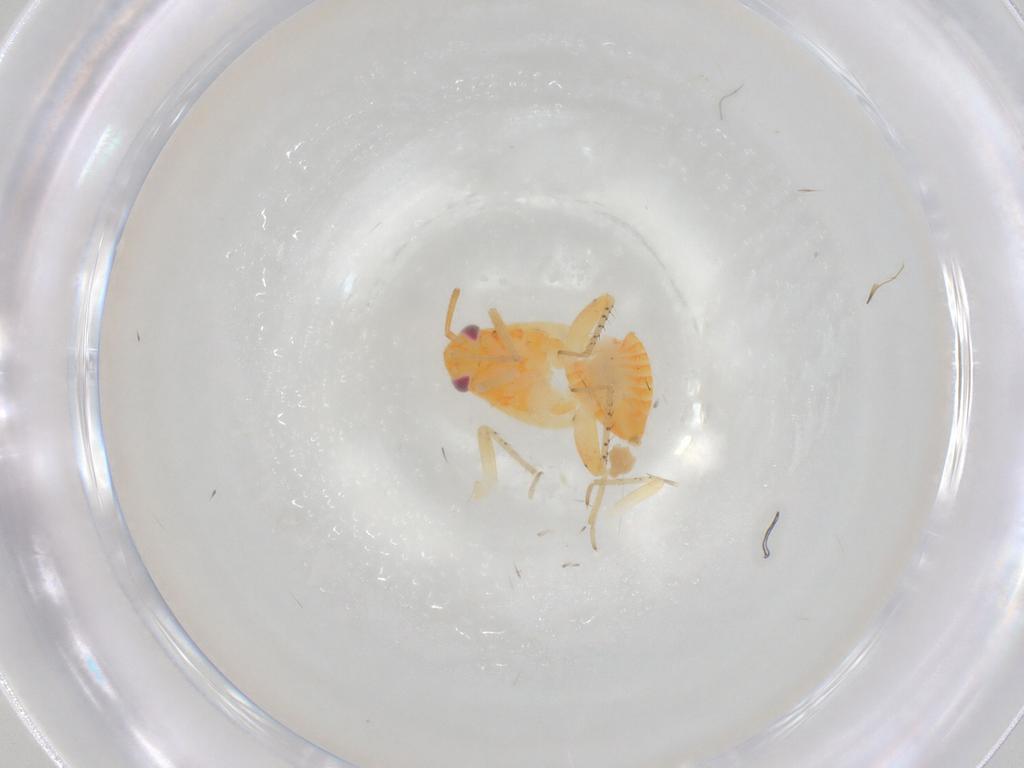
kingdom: Animalia
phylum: Arthropoda
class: Insecta
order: Hemiptera
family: Miridae
